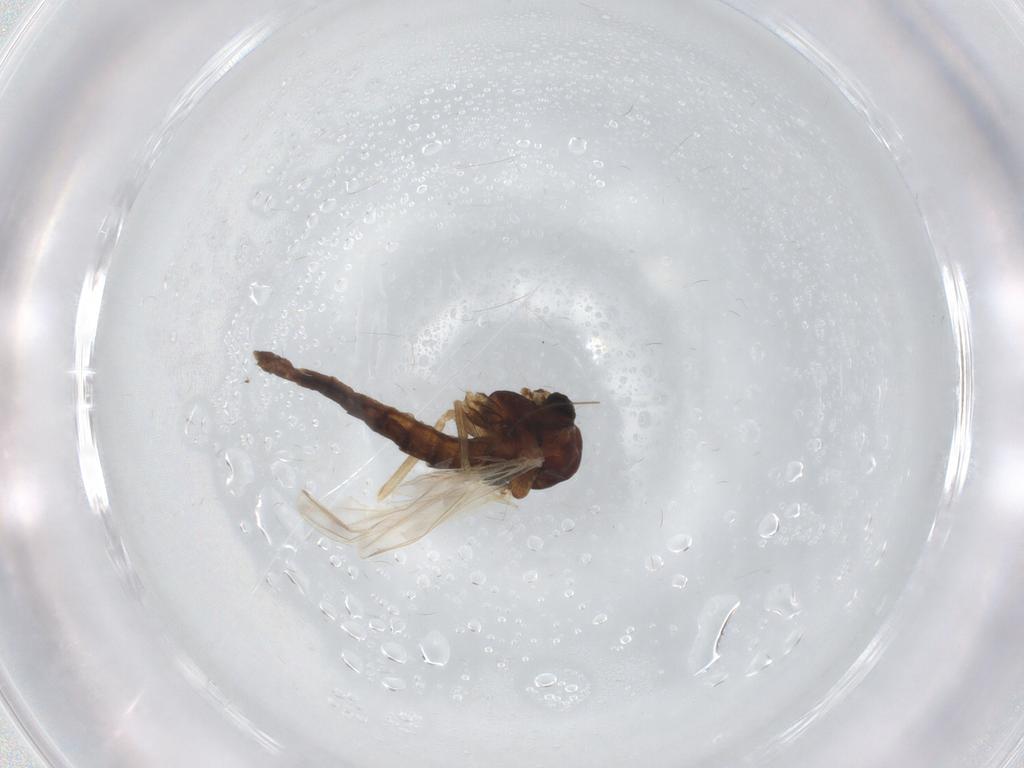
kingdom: Animalia
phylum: Arthropoda
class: Insecta
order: Diptera
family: Chironomidae
